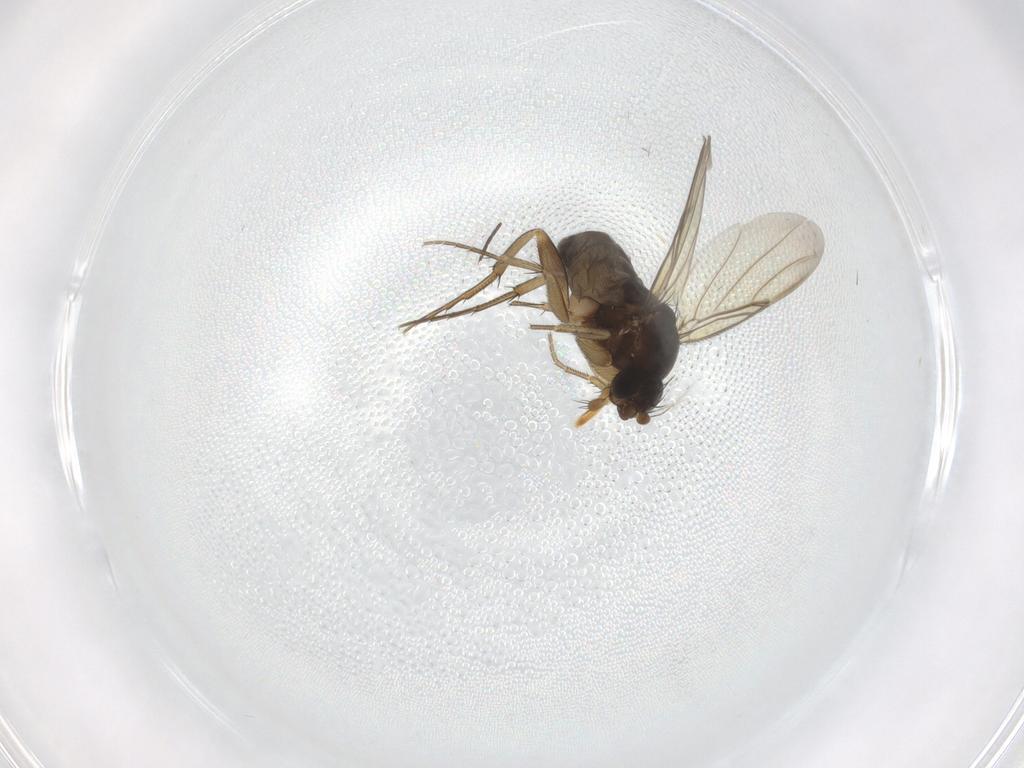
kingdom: Animalia
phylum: Arthropoda
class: Insecta
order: Diptera
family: Phoridae
